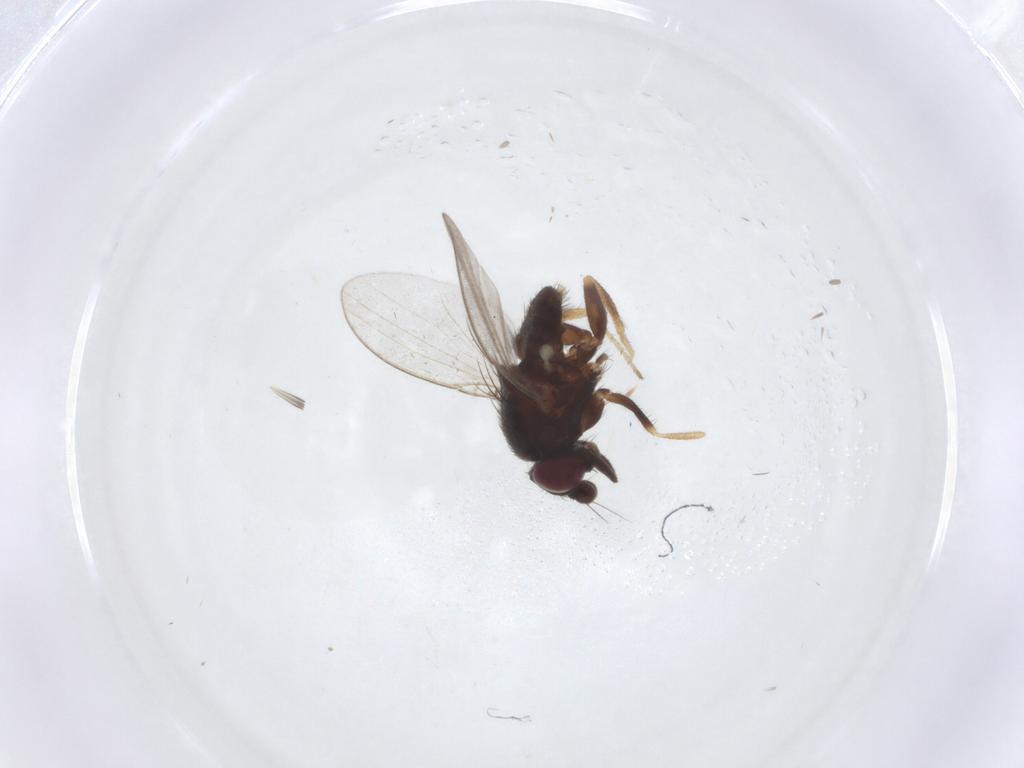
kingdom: Animalia
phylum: Arthropoda
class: Insecta
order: Diptera
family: Milichiidae
